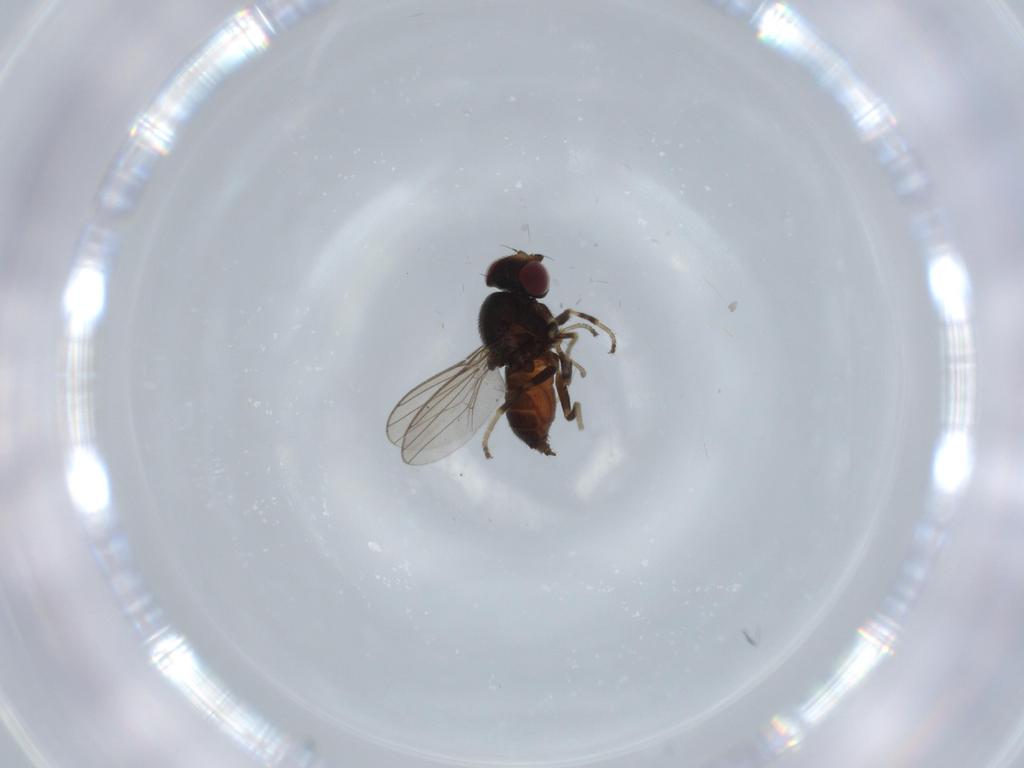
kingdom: Animalia
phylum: Arthropoda
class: Insecta
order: Diptera
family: Chloropidae
